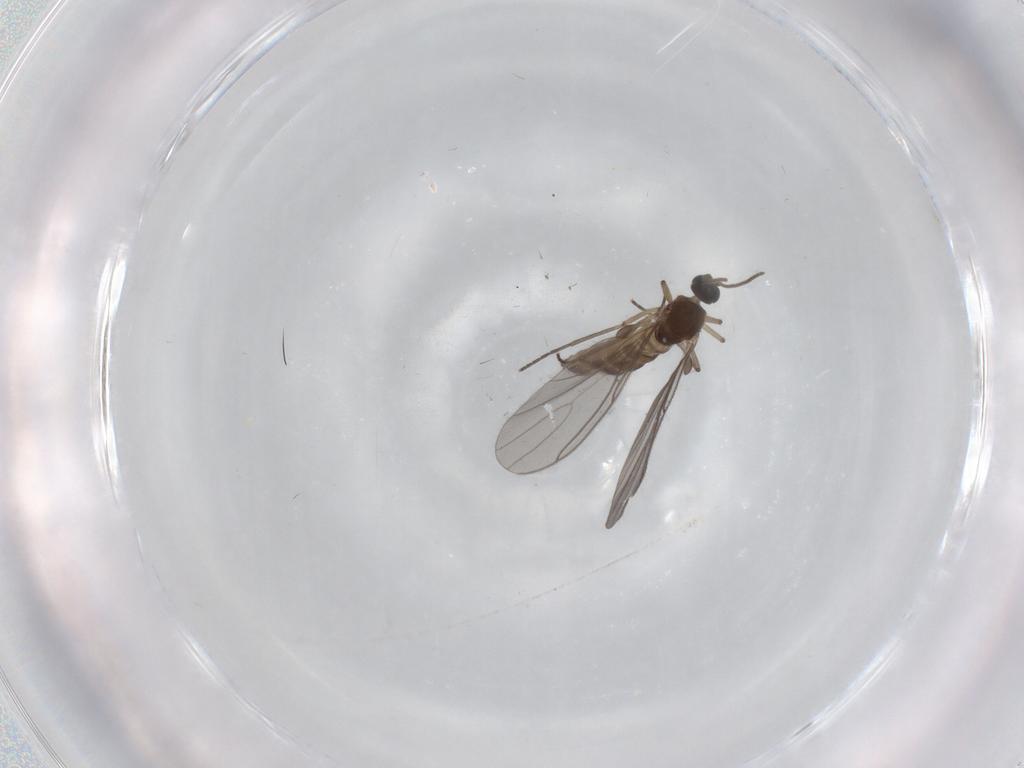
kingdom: Animalia
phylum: Arthropoda
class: Insecta
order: Diptera
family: Sciaridae
